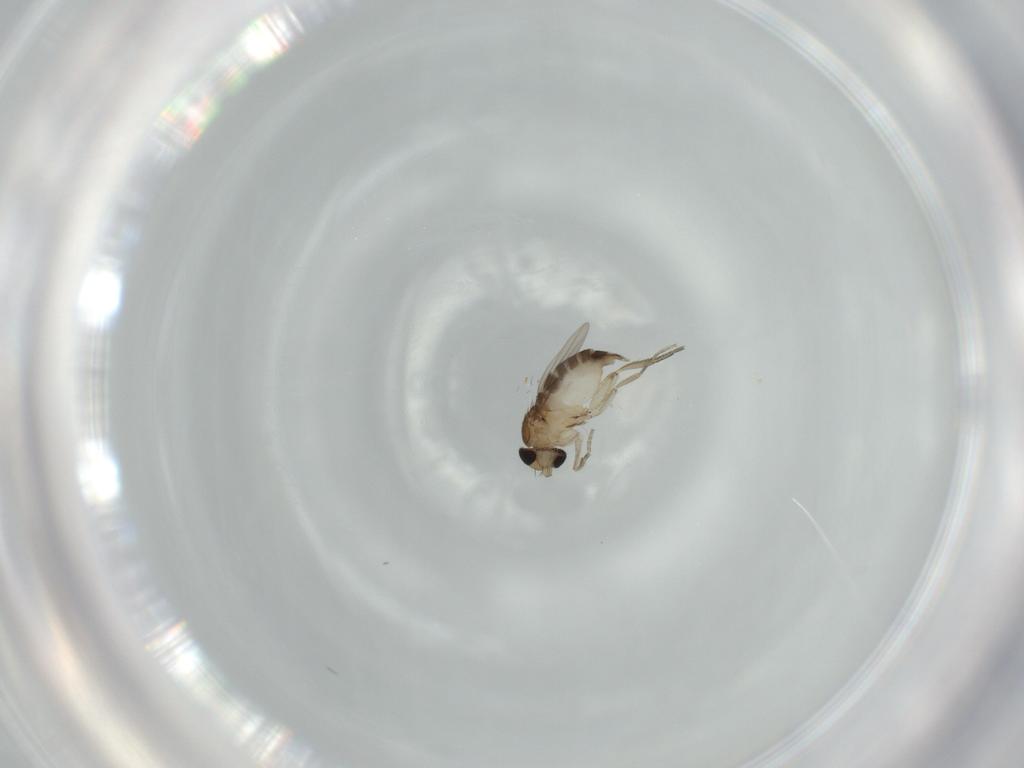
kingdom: Animalia
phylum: Arthropoda
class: Insecta
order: Diptera
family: Phoridae
